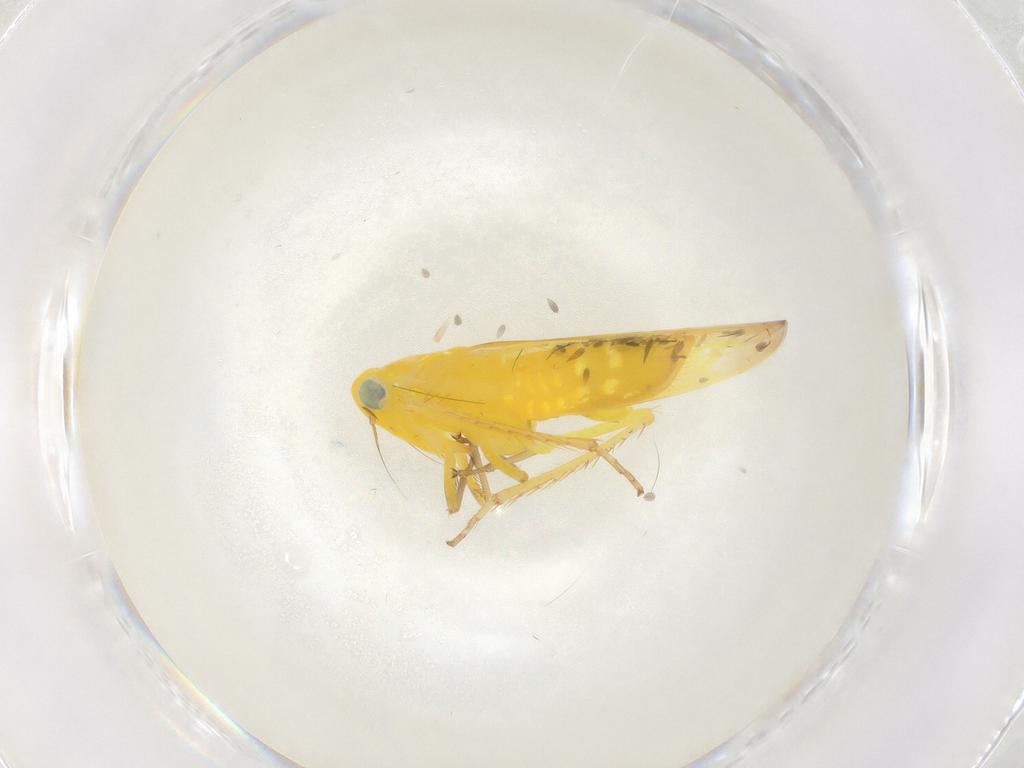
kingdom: Animalia
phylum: Arthropoda
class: Insecta
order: Hemiptera
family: Cicadellidae
